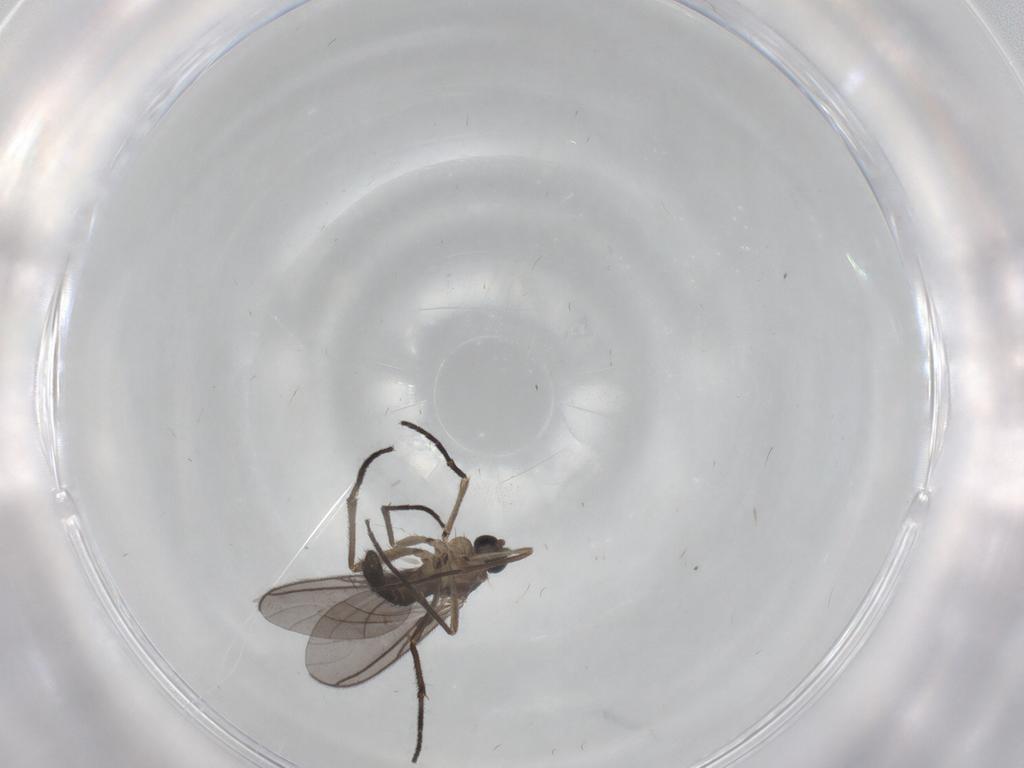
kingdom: Animalia
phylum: Arthropoda
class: Insecta
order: Diptera
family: Sciaridae
